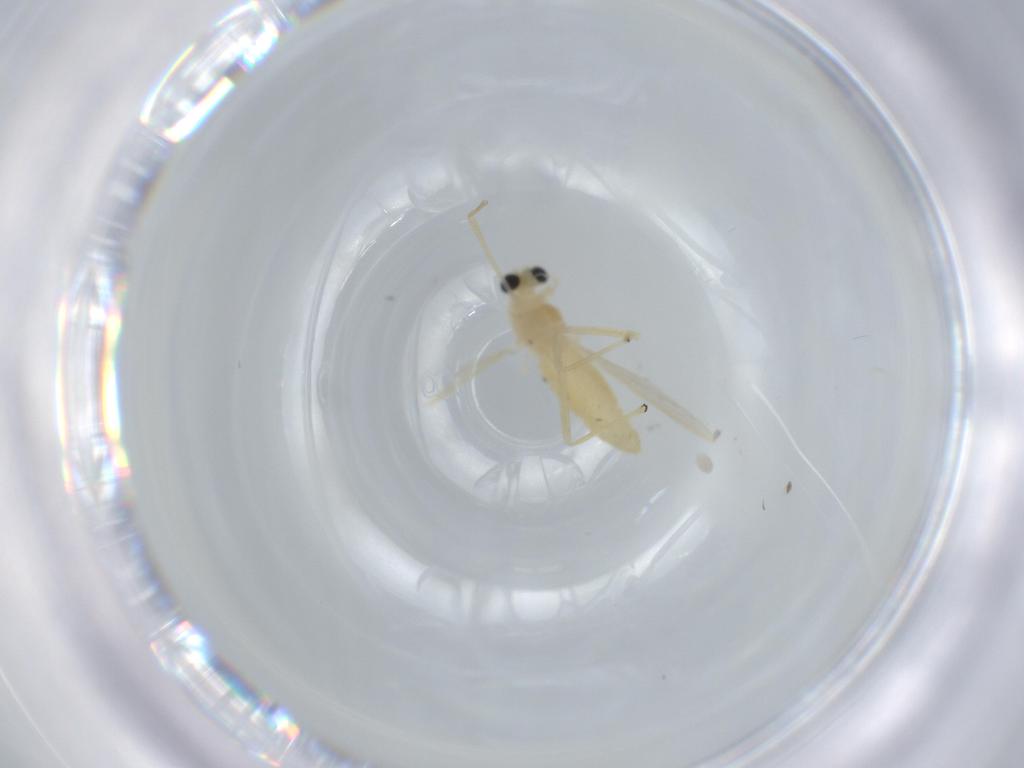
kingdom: Animalia
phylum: Arthropoda
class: Insecta
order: Diptera
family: Chironomidae
